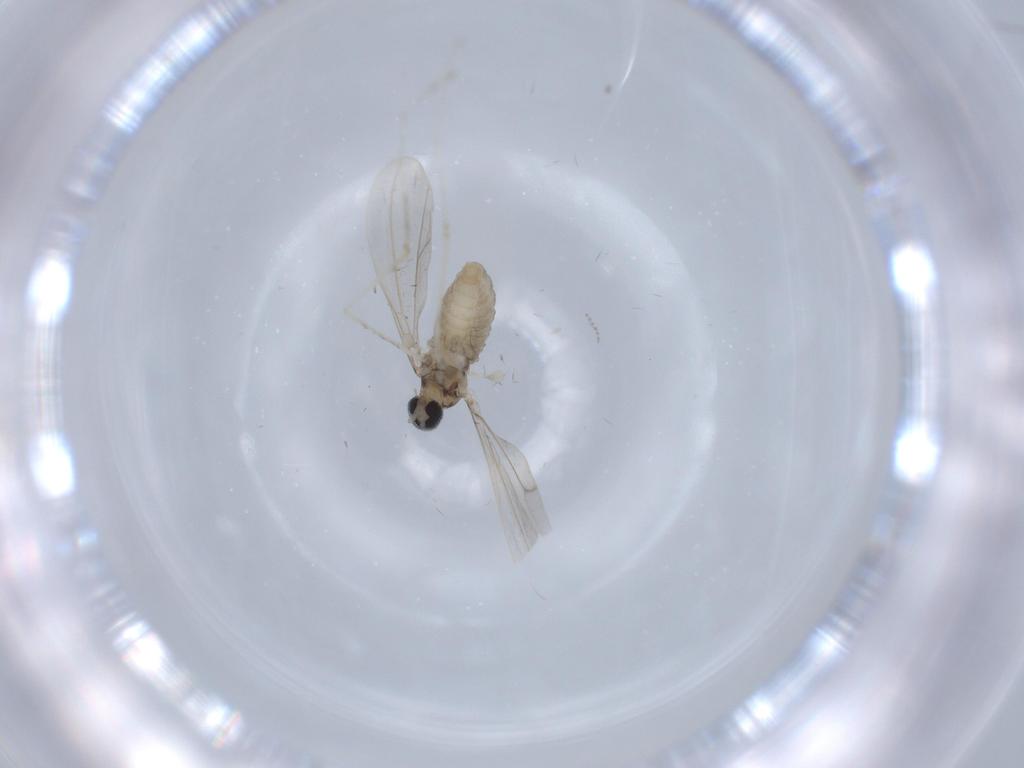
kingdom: Animalia
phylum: Arthropoda
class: Insecta
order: Diptera
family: Cecidomyiidae
